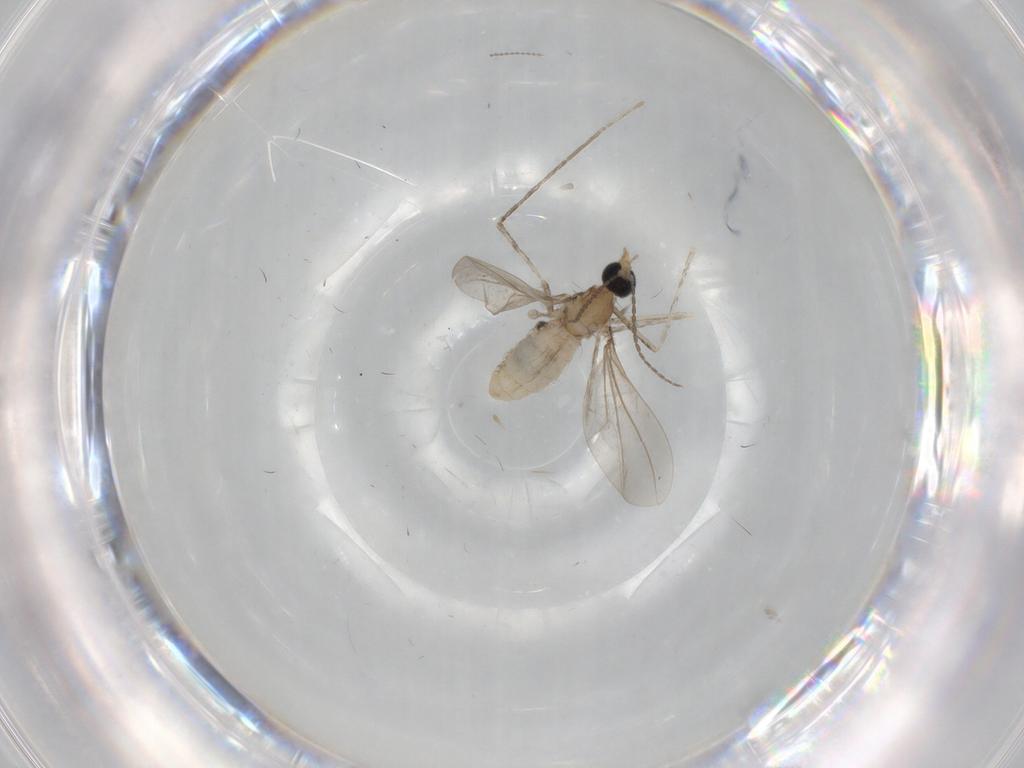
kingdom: Animalia
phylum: Arthropoda
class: Insecta
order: Diptera
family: Cecidomyiidae
